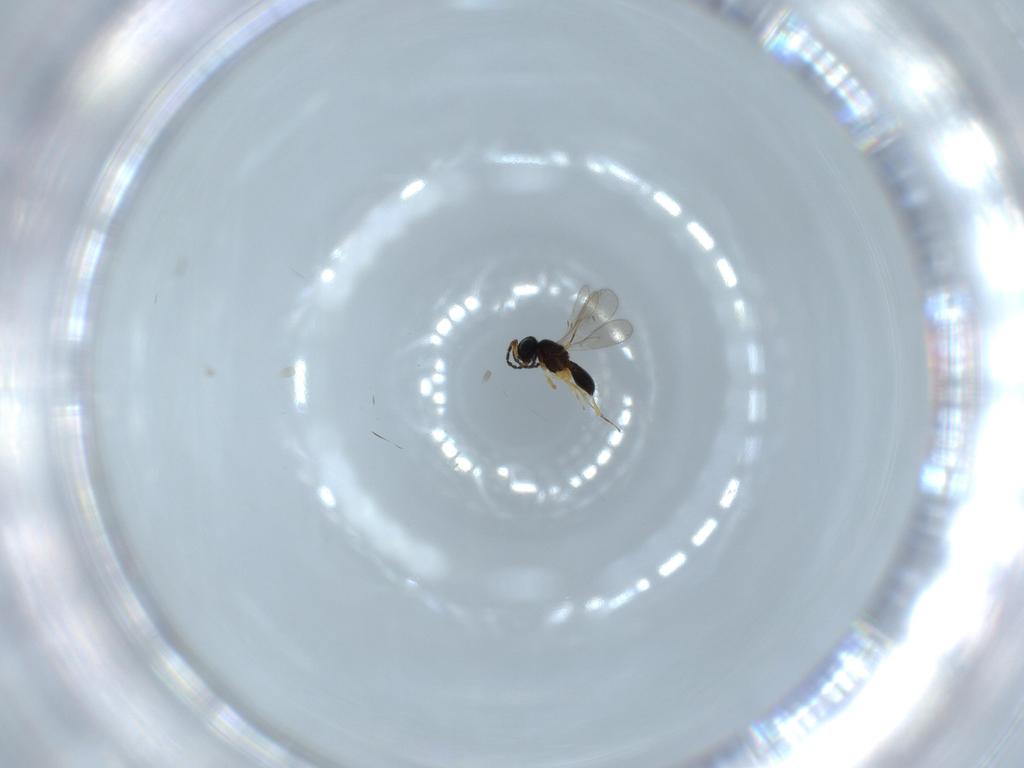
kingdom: Animalia
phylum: Arthropoda
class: Insecta
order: Hymenoptera
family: Scelionidae
